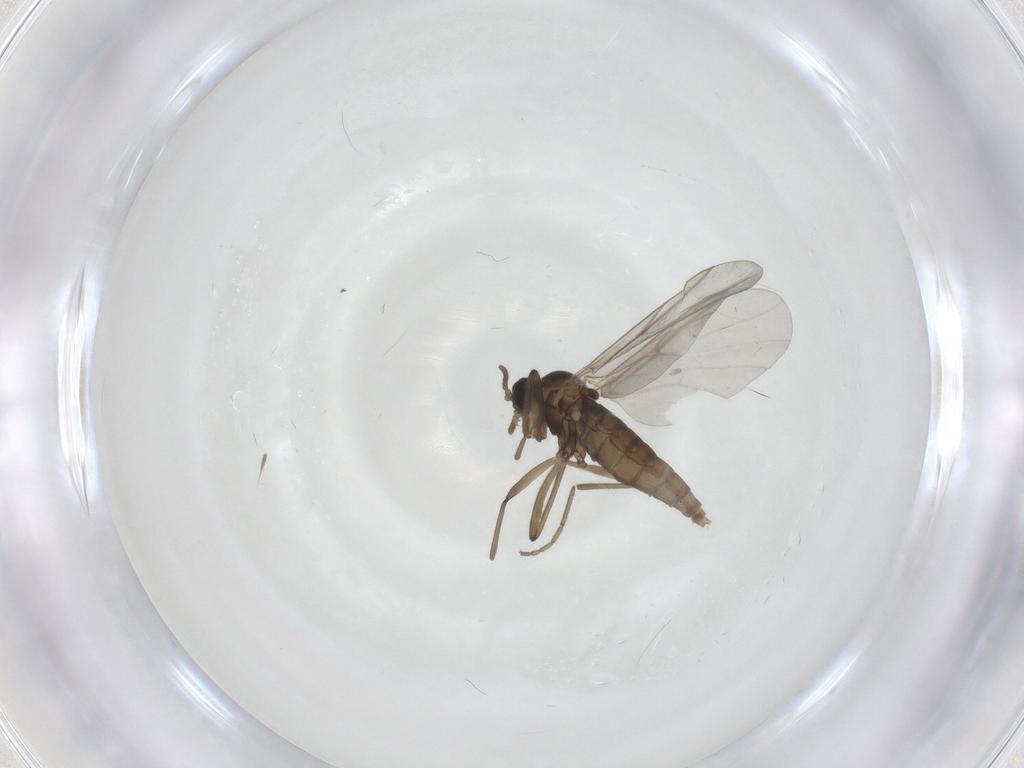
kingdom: Animalia
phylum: Arthropoda
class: Insecta
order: Diptera
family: Cecidomyiidae
